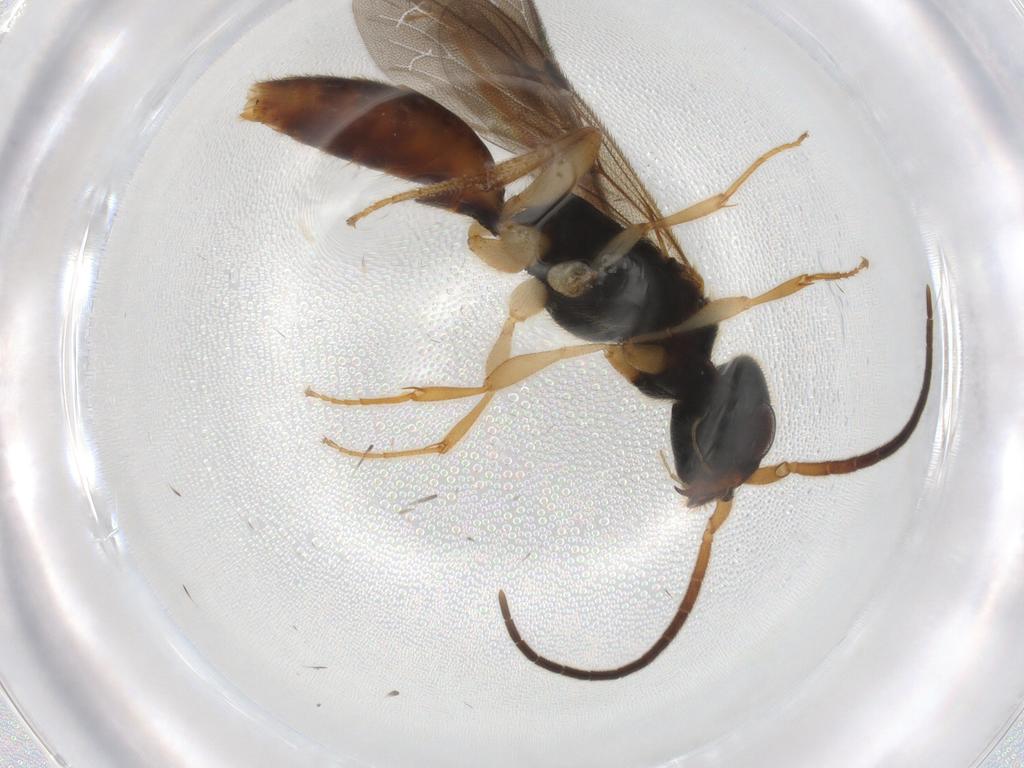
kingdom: Animalia
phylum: Arthropoda
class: Insecta
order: Hymenoptera
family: Bethylidae
